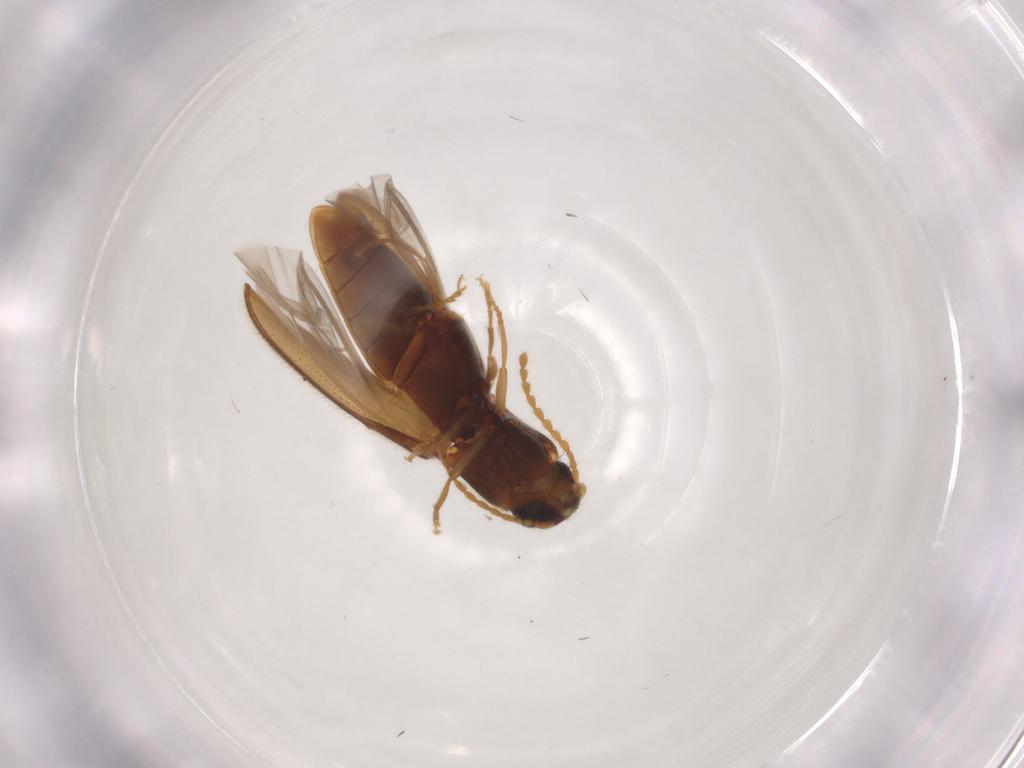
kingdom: Animalia
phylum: Arthropoda
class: Insecta
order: Coleoptera
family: Elateridae
